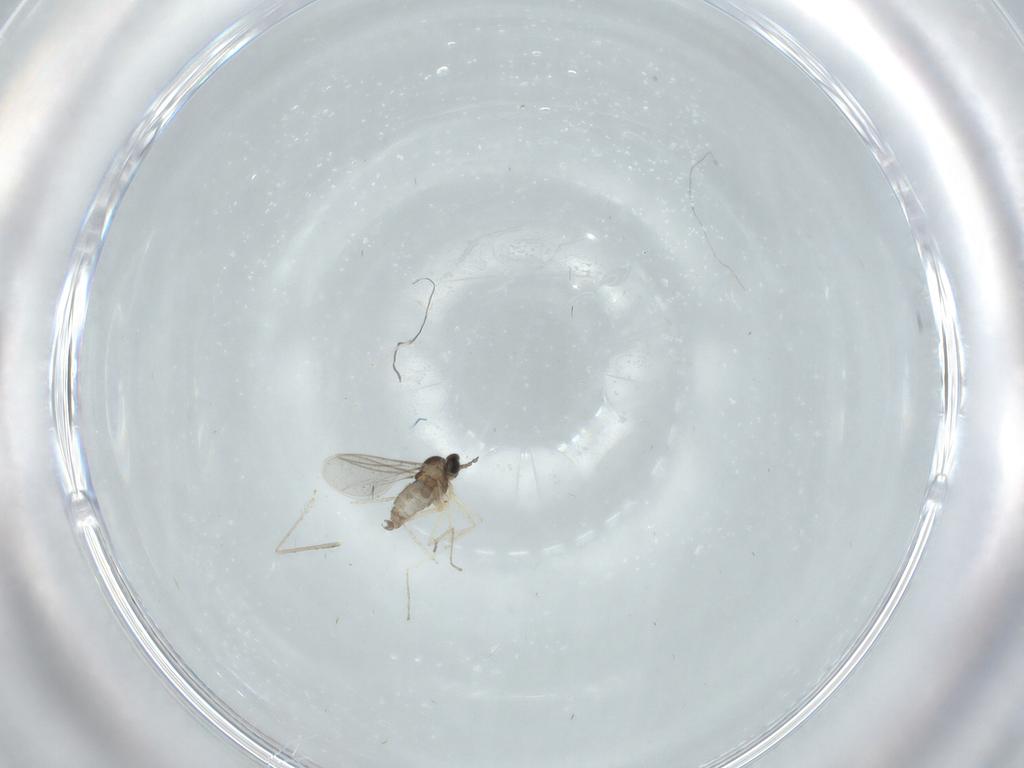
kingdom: Animalia
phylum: Arthropoda
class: Insecta
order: Diptera
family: Cecidomyiidae
